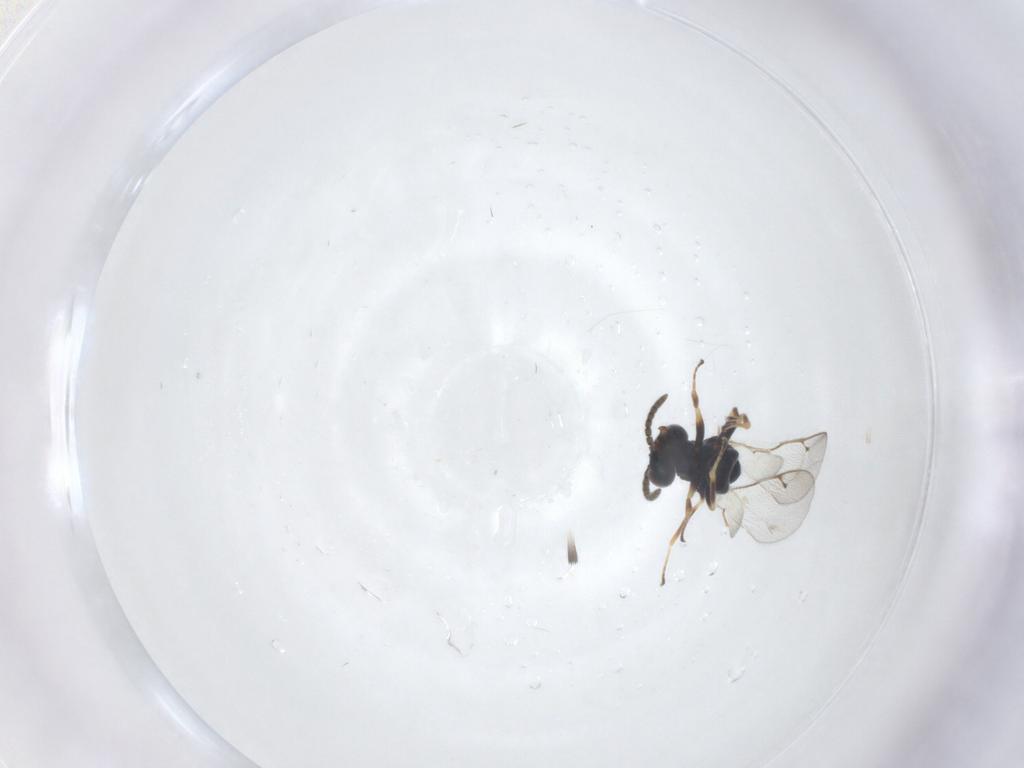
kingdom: Animalia
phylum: Arthropoda
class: Insecta
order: Hymenoptera
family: Pteromalidae
